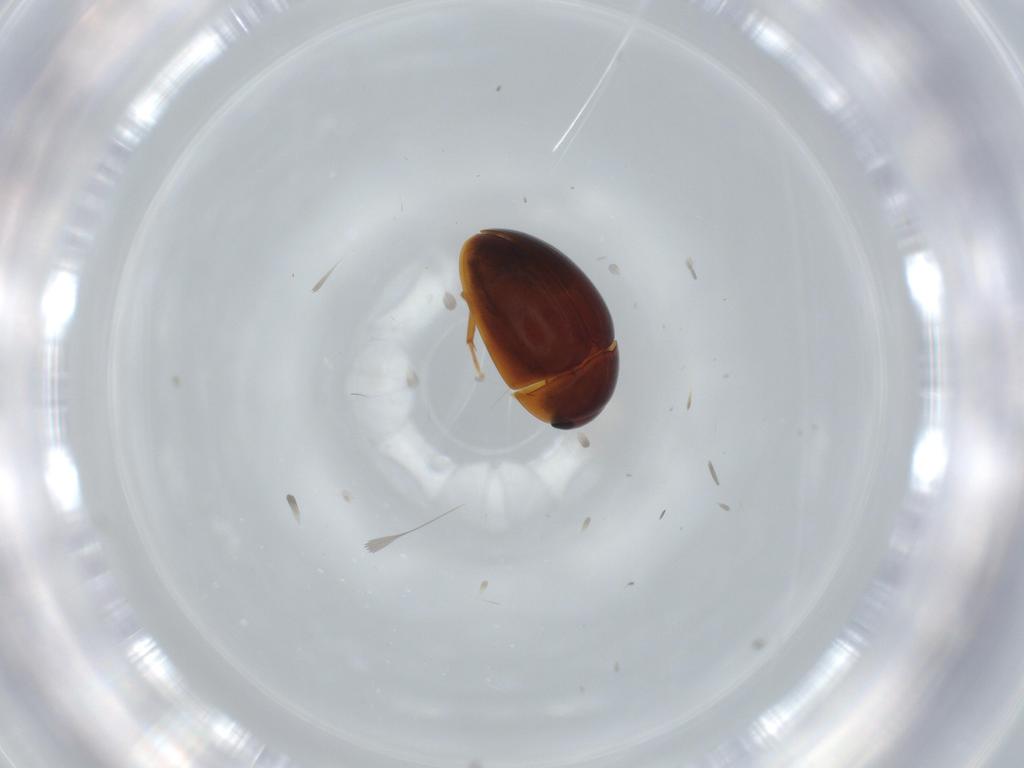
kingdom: Animalia
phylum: Arthropoda
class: Insecta
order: Coleoptera
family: Phalacridae
